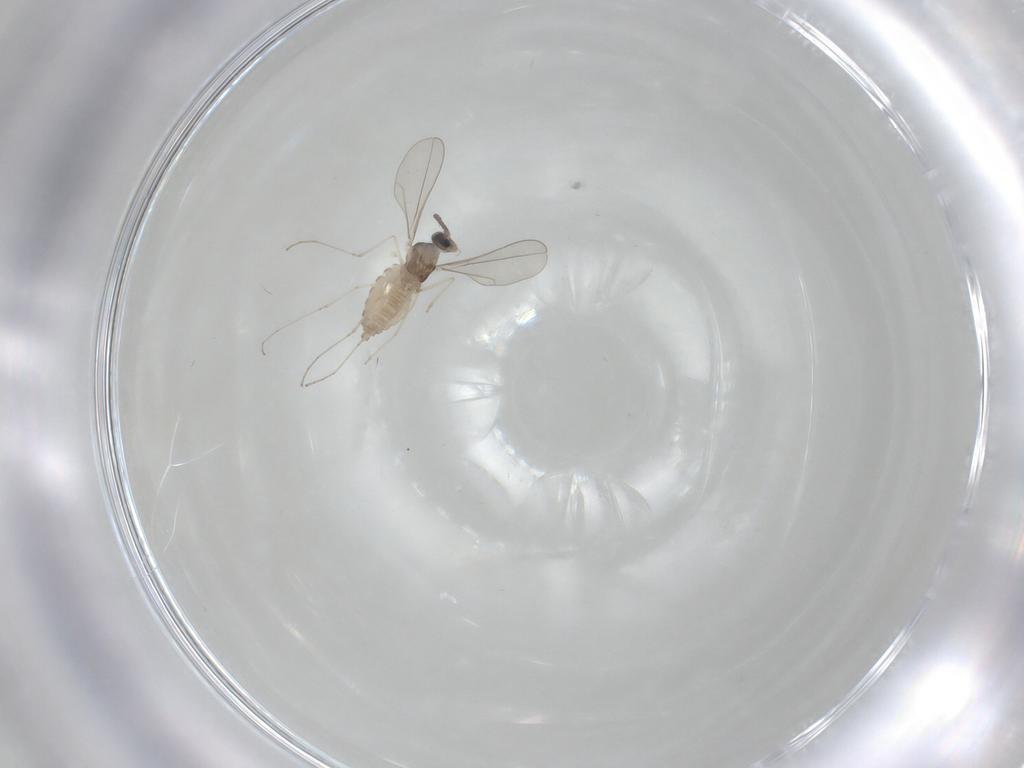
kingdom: Animalia
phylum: Arthropoda
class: Insecta
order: Diptera
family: Cecidomyiidae
